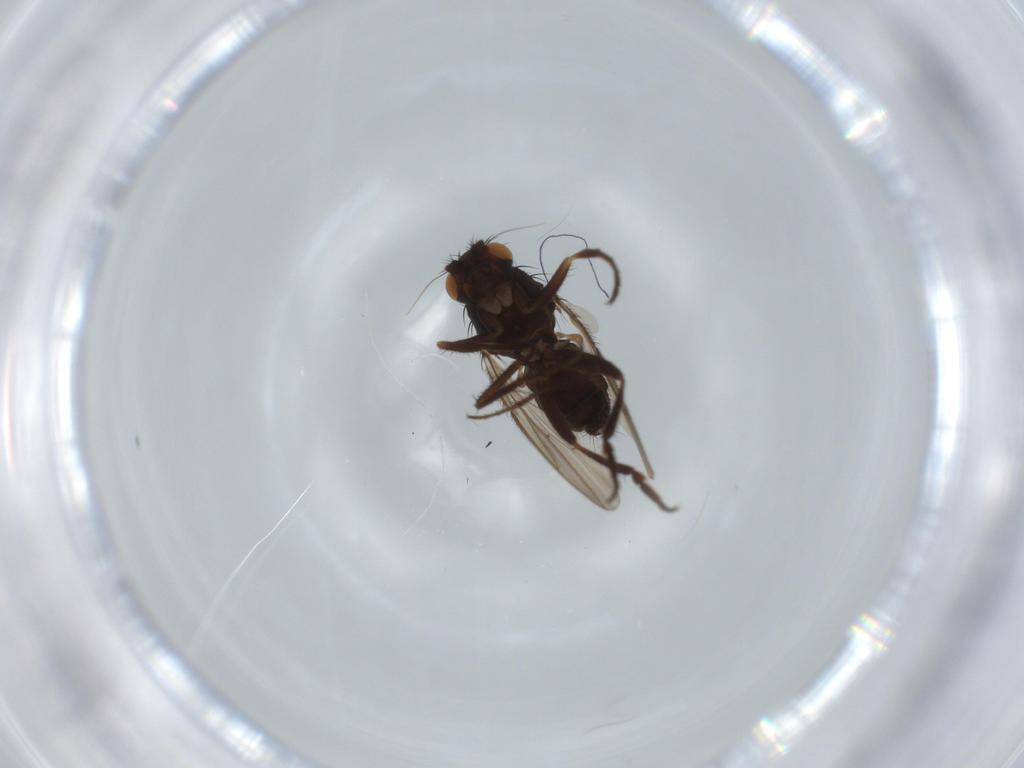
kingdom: Animalia
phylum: Arthropoda
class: Insecta
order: Diptera
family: Sphaeroceridae
